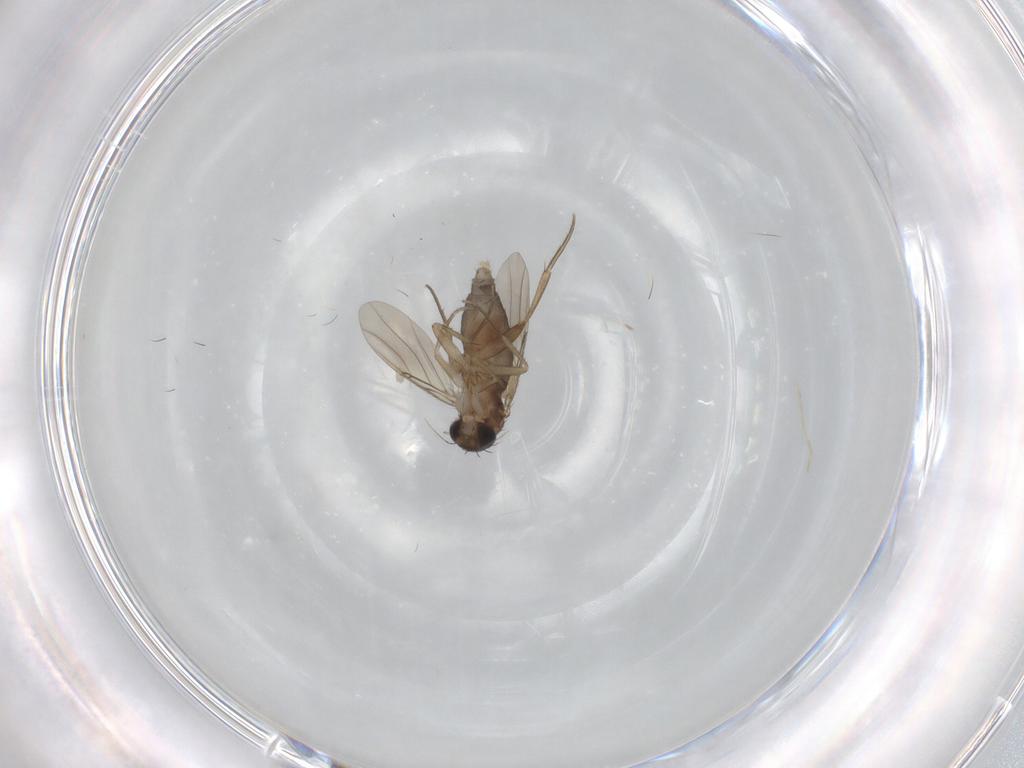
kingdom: Animalia
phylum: Arthropoda
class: Insecta
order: Diptera
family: Phoridae
